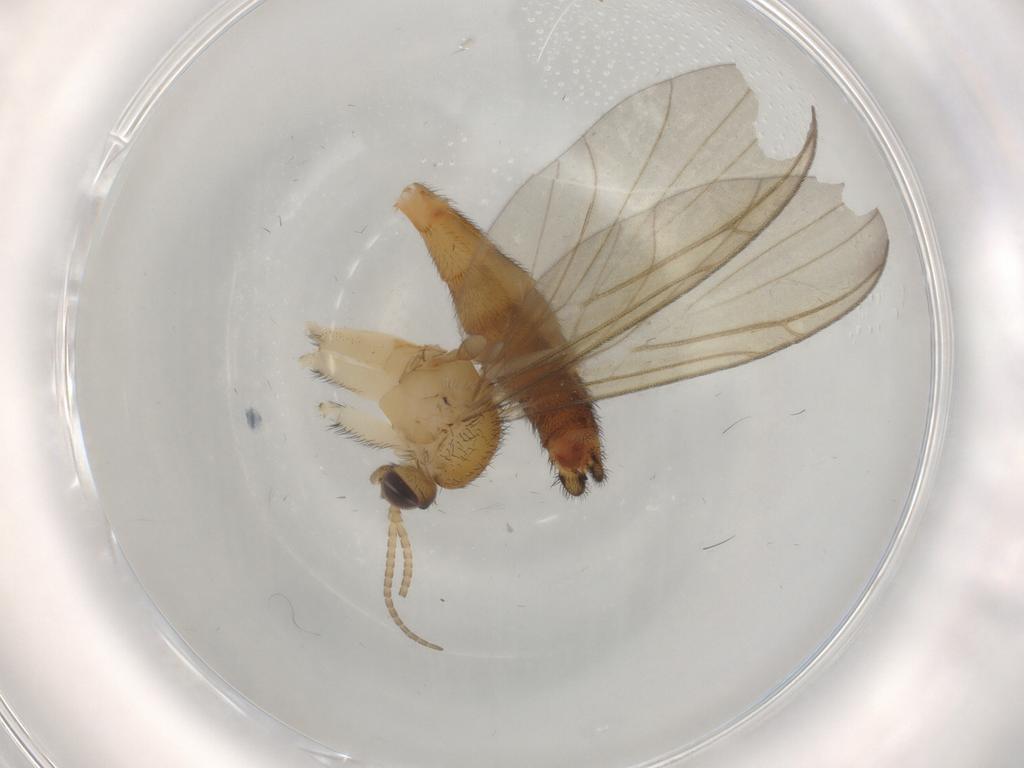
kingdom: Animalia
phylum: Arthropoda
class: Insecta
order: Diptera
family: Keroplatidae
